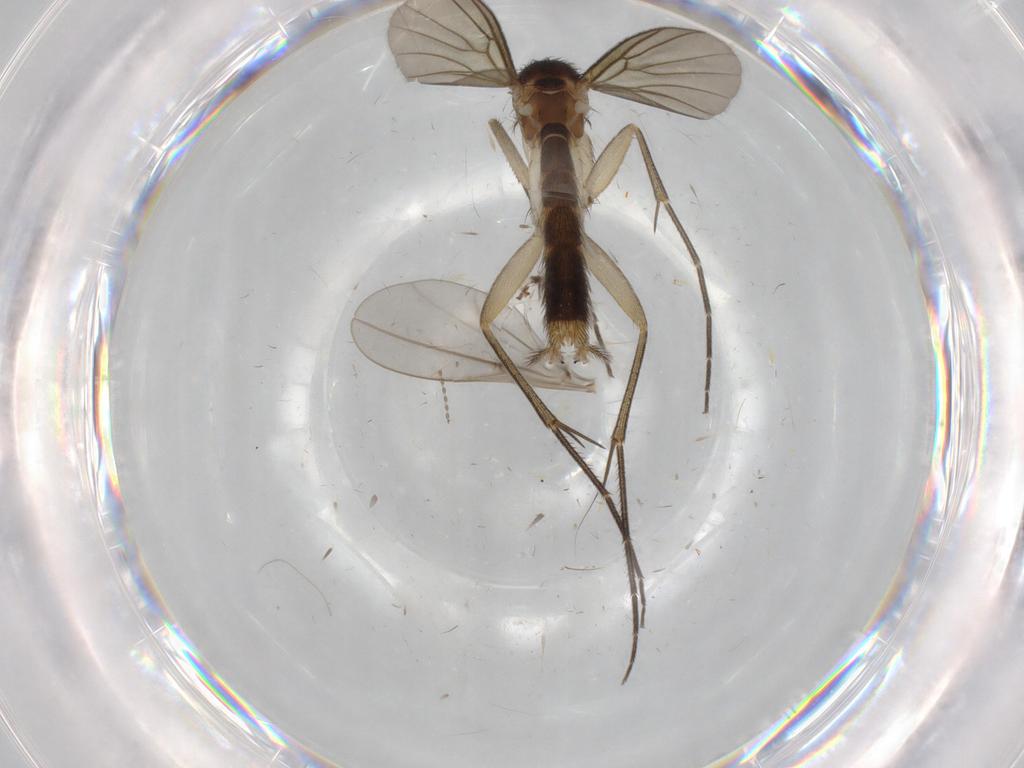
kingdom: Animalia
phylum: Arthropoda
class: Insecta
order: Diptera
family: Cecidomyiidae
